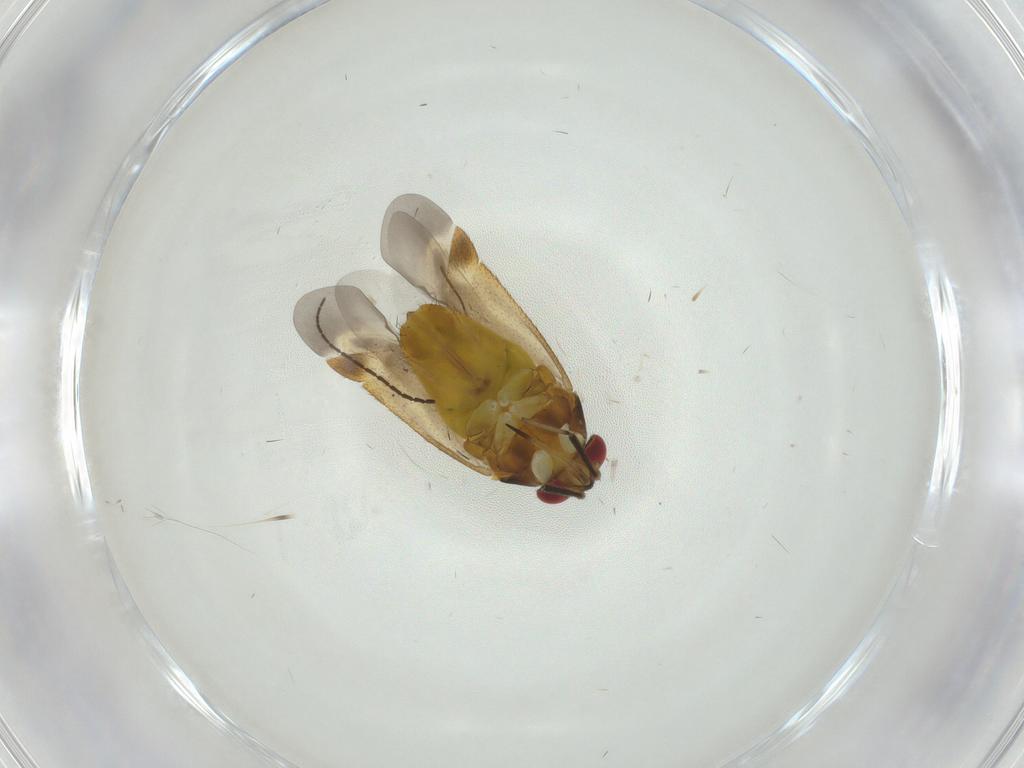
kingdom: Animalia
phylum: Arthropoda
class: Insecta
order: Hemiptera
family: Miridae
